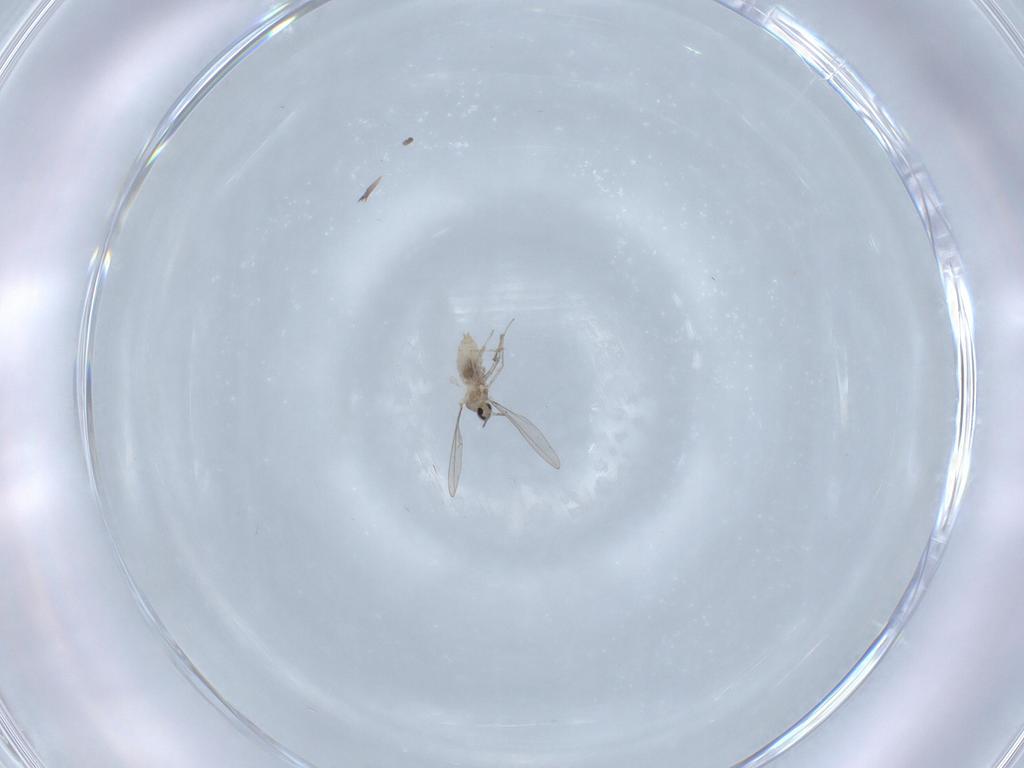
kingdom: Animalia
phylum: Arthropoda
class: Insecta
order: Diptera
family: Cecidomyiidae
